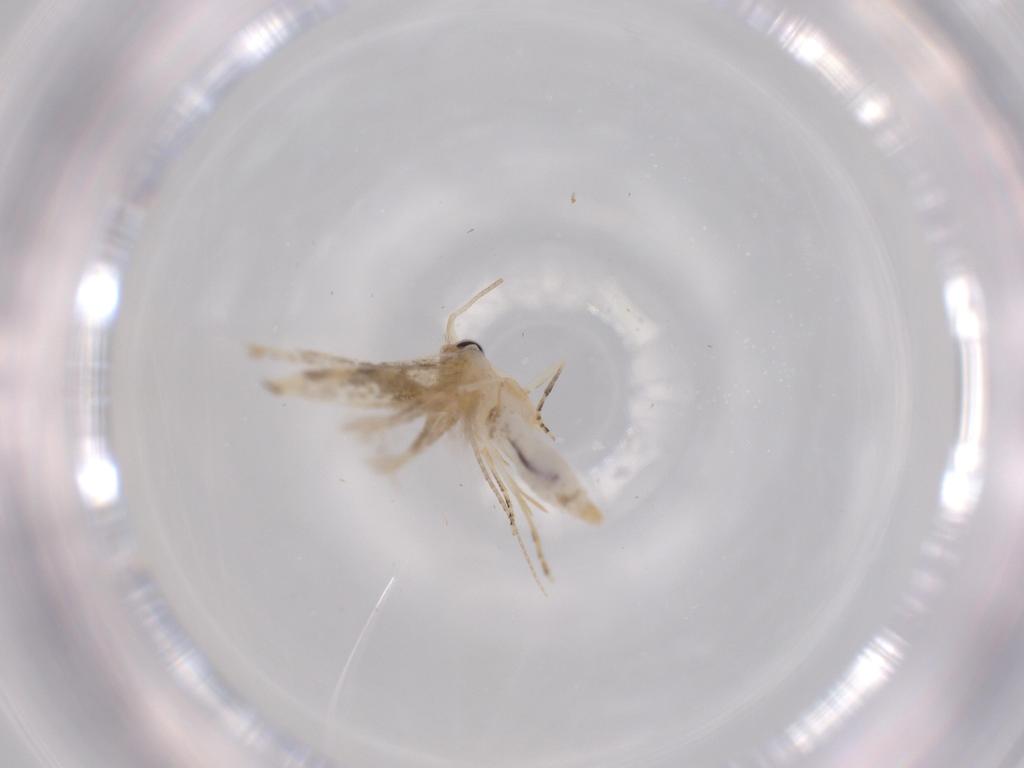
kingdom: Animalia
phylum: Arthropoda
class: Insecta
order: Lepidoptera
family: Bucculatricidae
